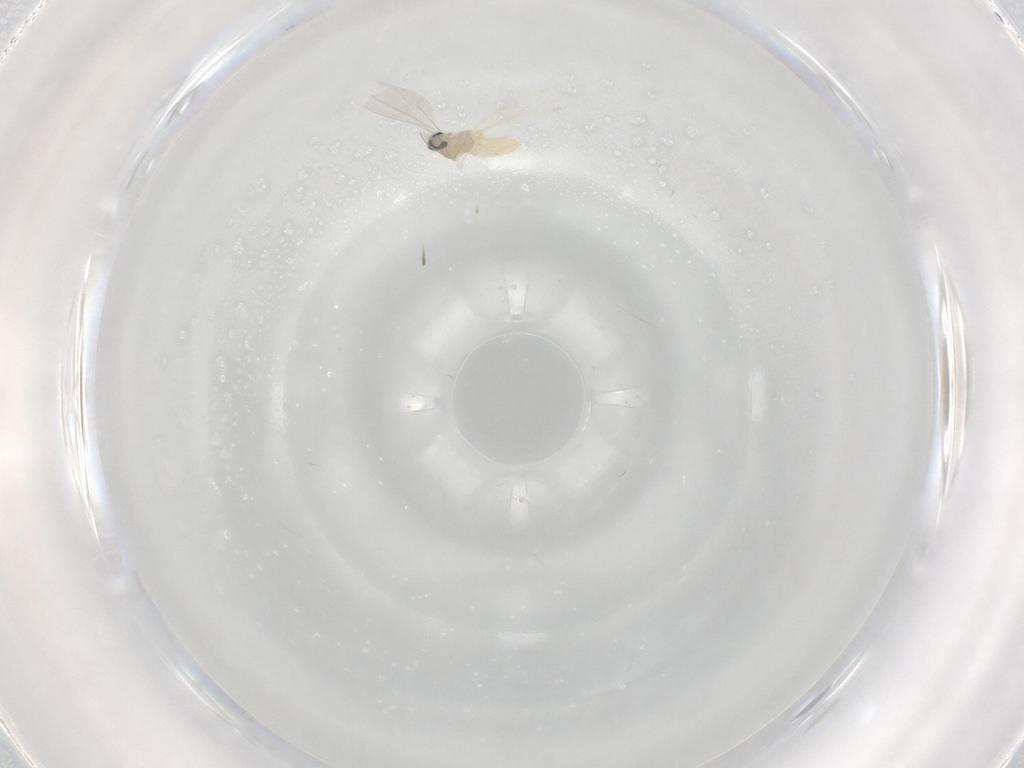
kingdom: Animalia
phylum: Arthropoda
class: Insecta
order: Diptera
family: Cecidomyiidae
